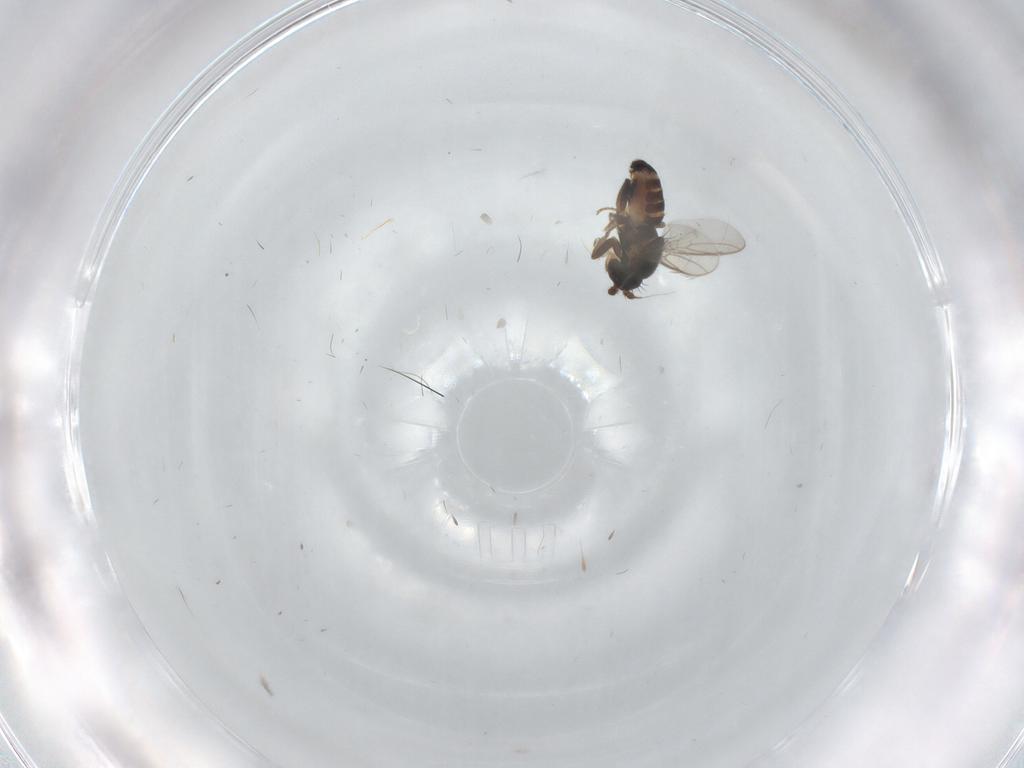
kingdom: Animalia
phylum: Arthropoda
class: Insecta
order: Diptera
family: Sphaeroceridae
